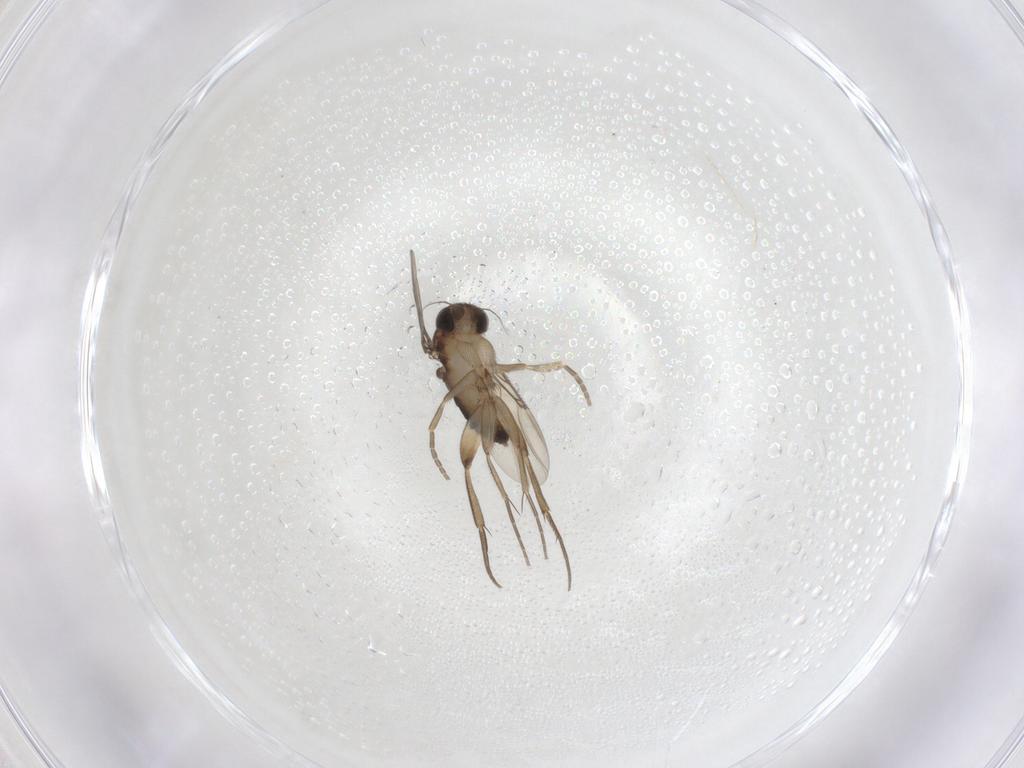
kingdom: Animalia
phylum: Arthropoda
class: Insecta
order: Diptera
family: Phoridae
